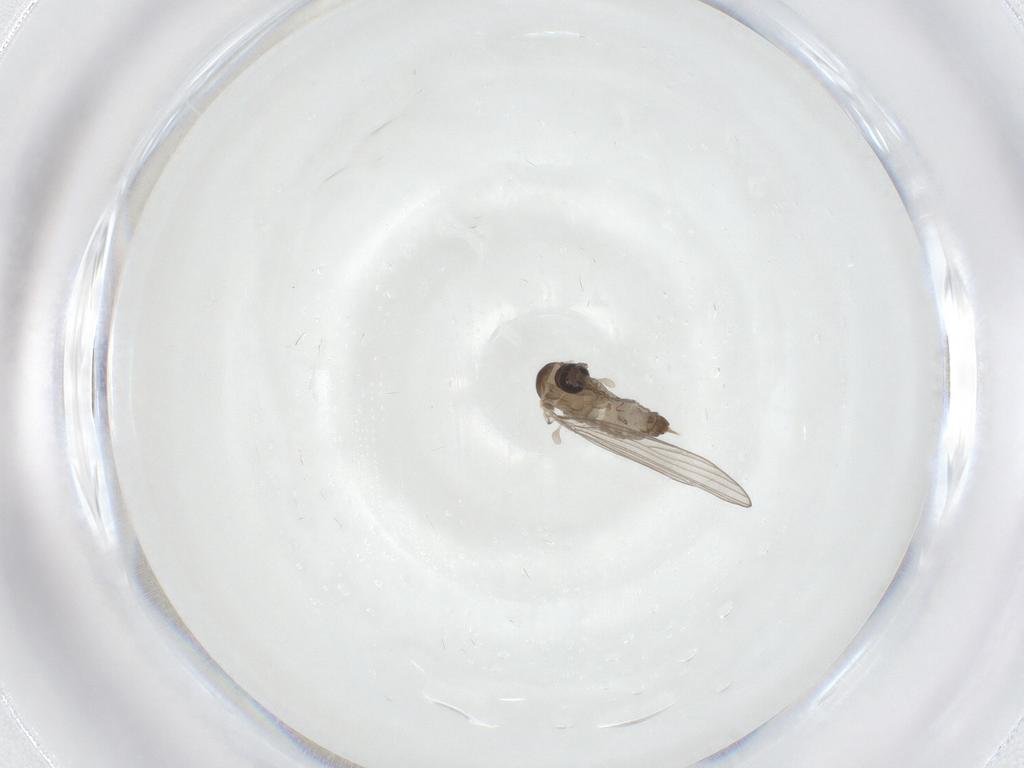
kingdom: Animalia
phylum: Arthropoda
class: Insecta
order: Diptera
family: Psychodidae
